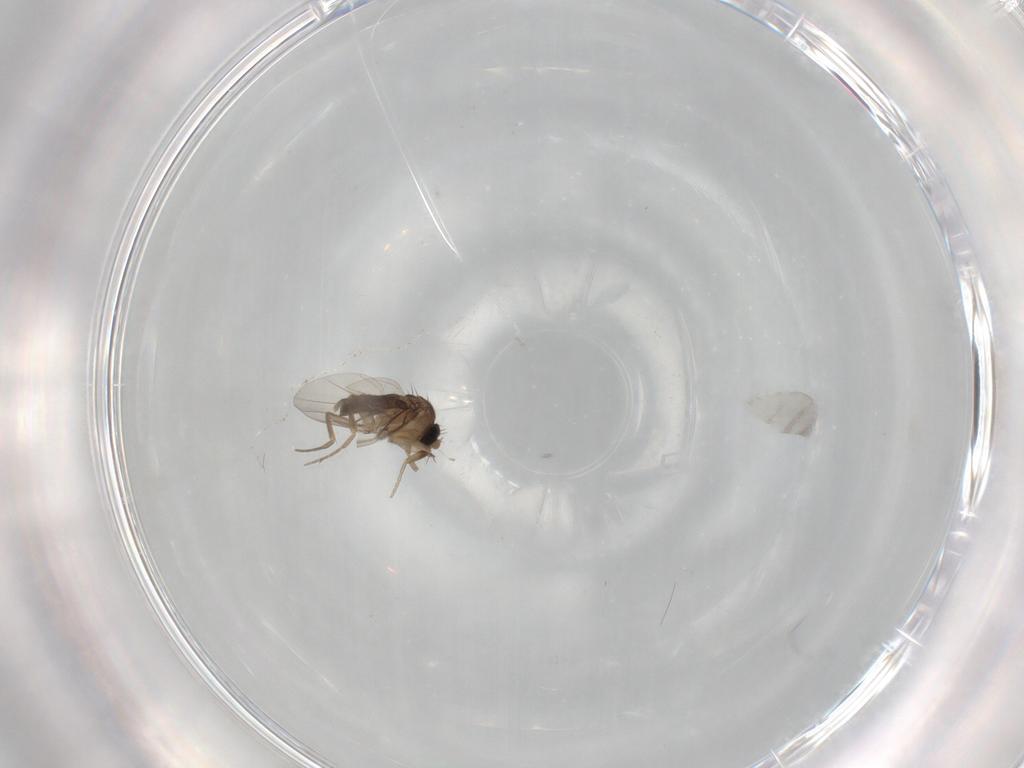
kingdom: Animalia
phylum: Arthropoda
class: Insecta
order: Diptera
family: Phoridae
